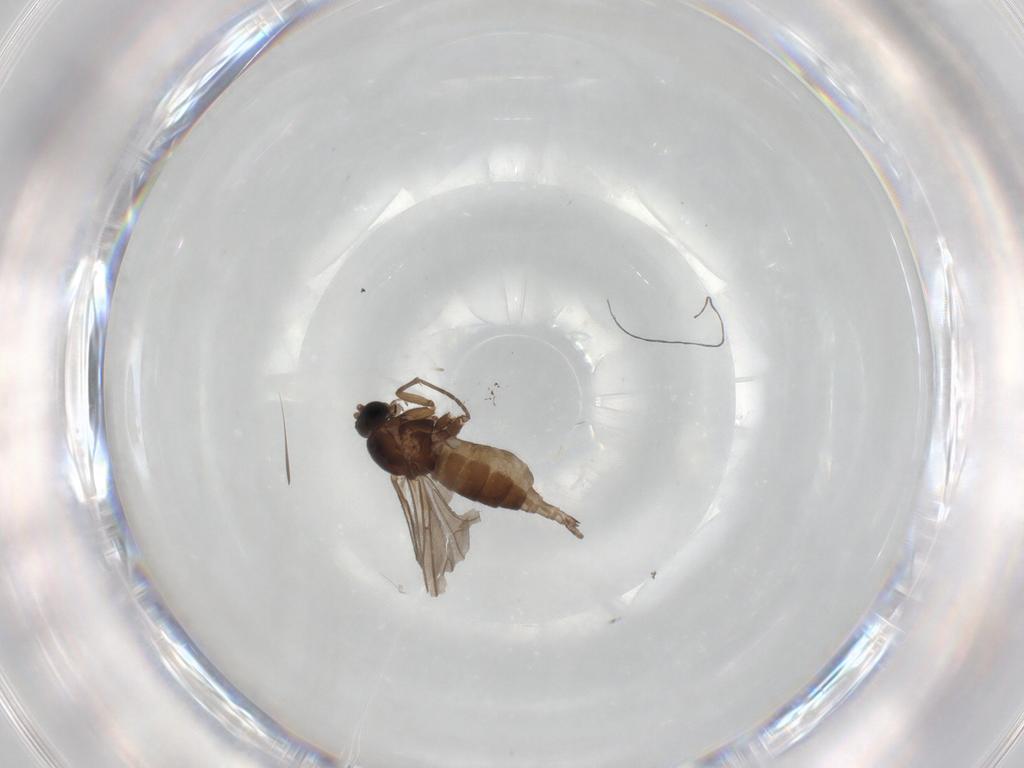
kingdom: Animalia
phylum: Arthropoda
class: Insecta
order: Diptera
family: Sciaridae
